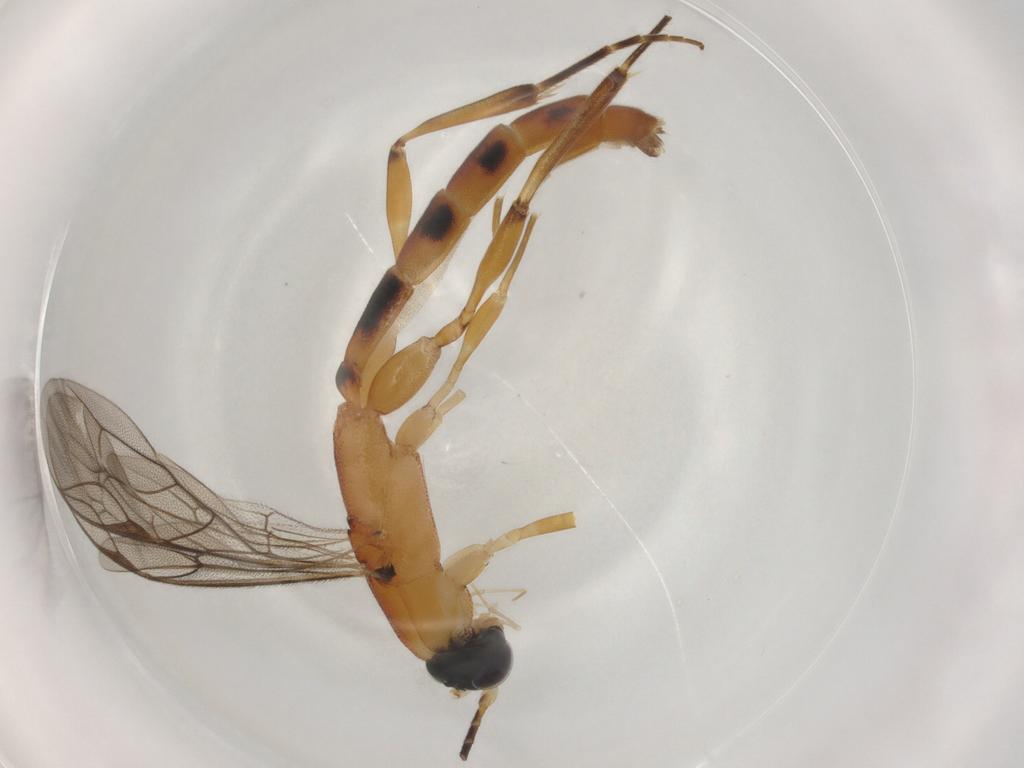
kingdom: Animalia
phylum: Arthropoda
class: Insecta
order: Hymenoptera
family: Ichneumonidae
